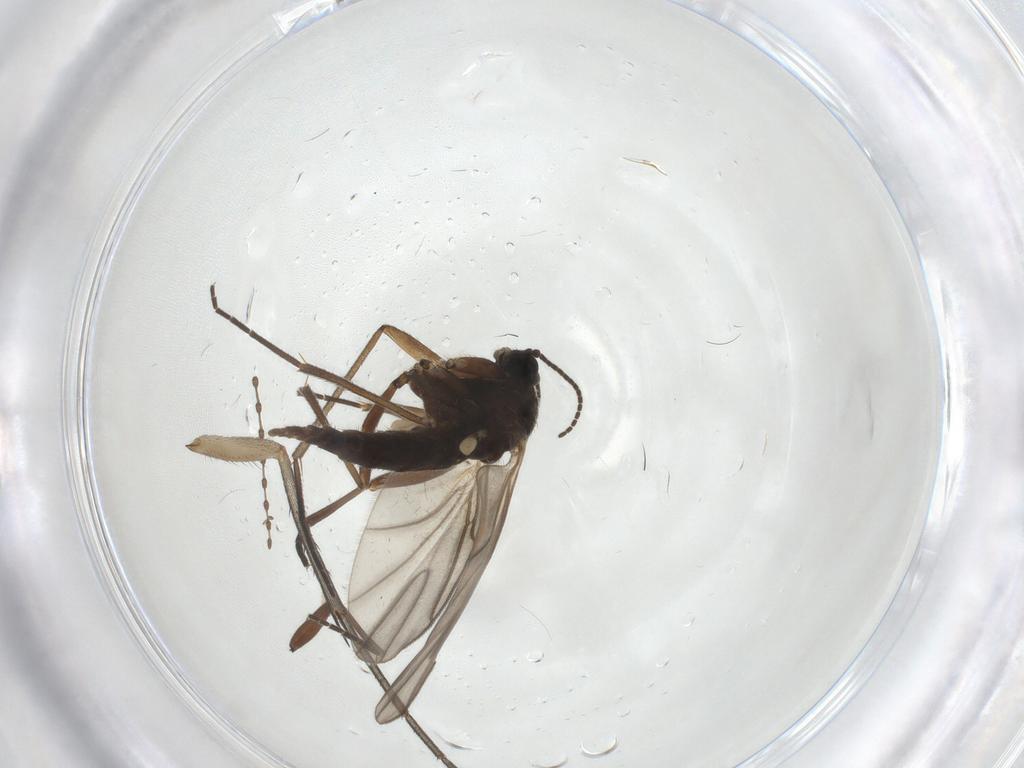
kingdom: Animalia
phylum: Arthropoda
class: Insecta
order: Diptera
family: Sciaridae
